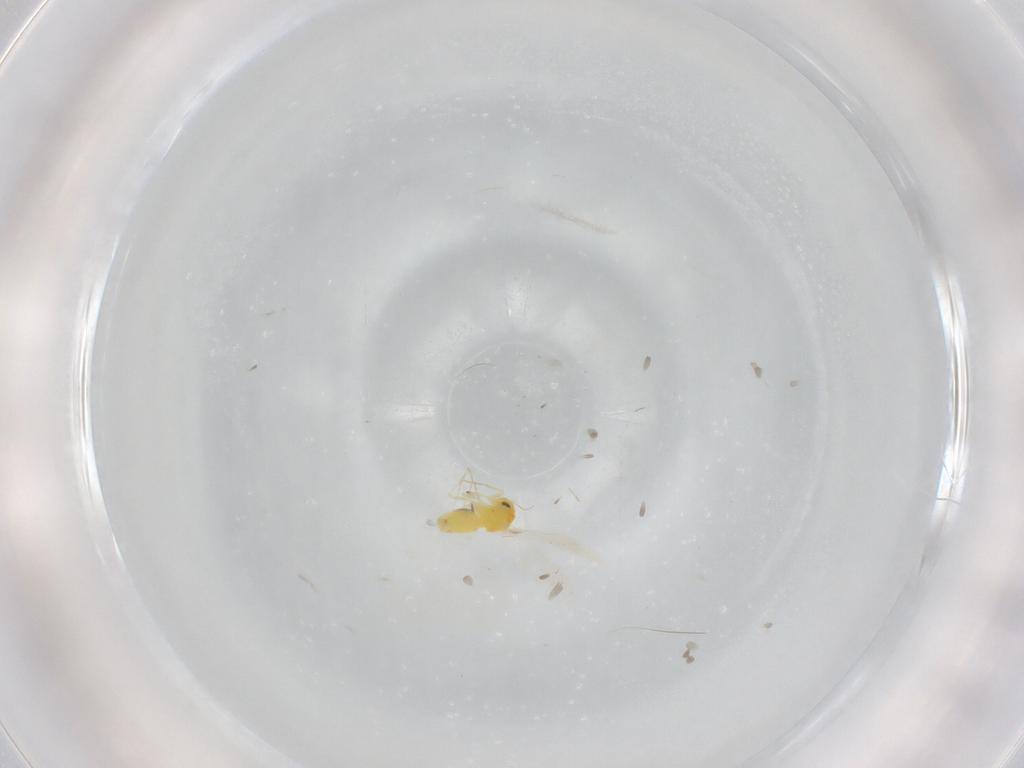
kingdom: Animalia
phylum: Arthropoda
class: Insecta
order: Hemiptera
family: Aleyrodidae
